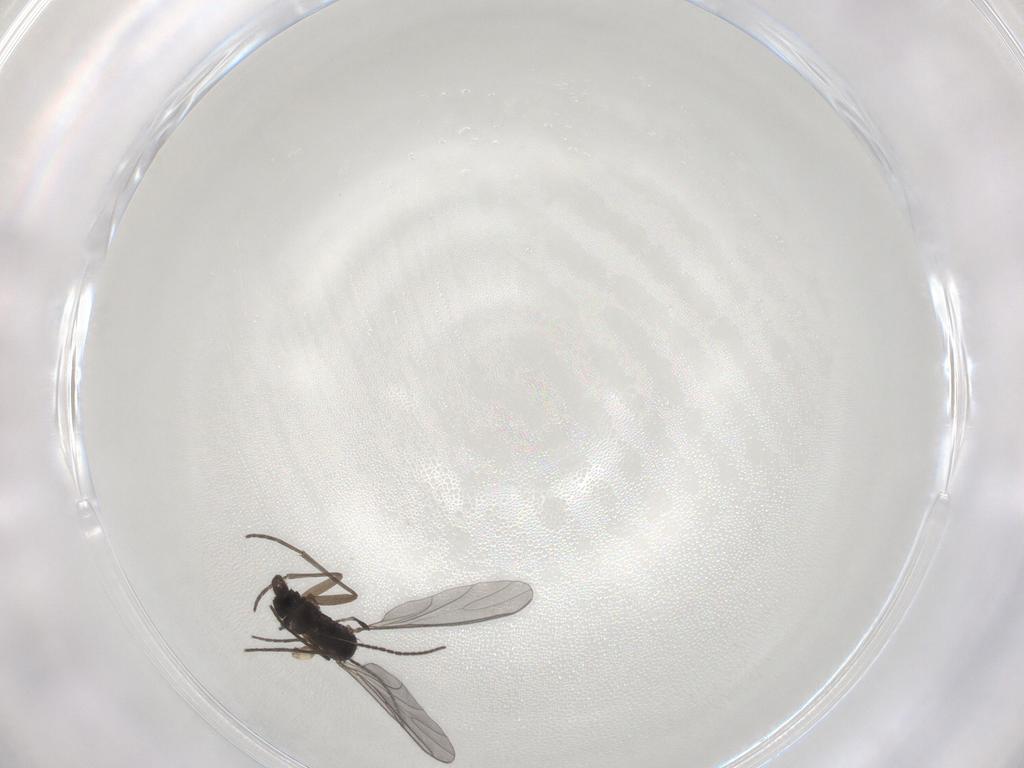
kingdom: Animalia
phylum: Arthropoda
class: Insecta
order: Diptera
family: Sciaridae
